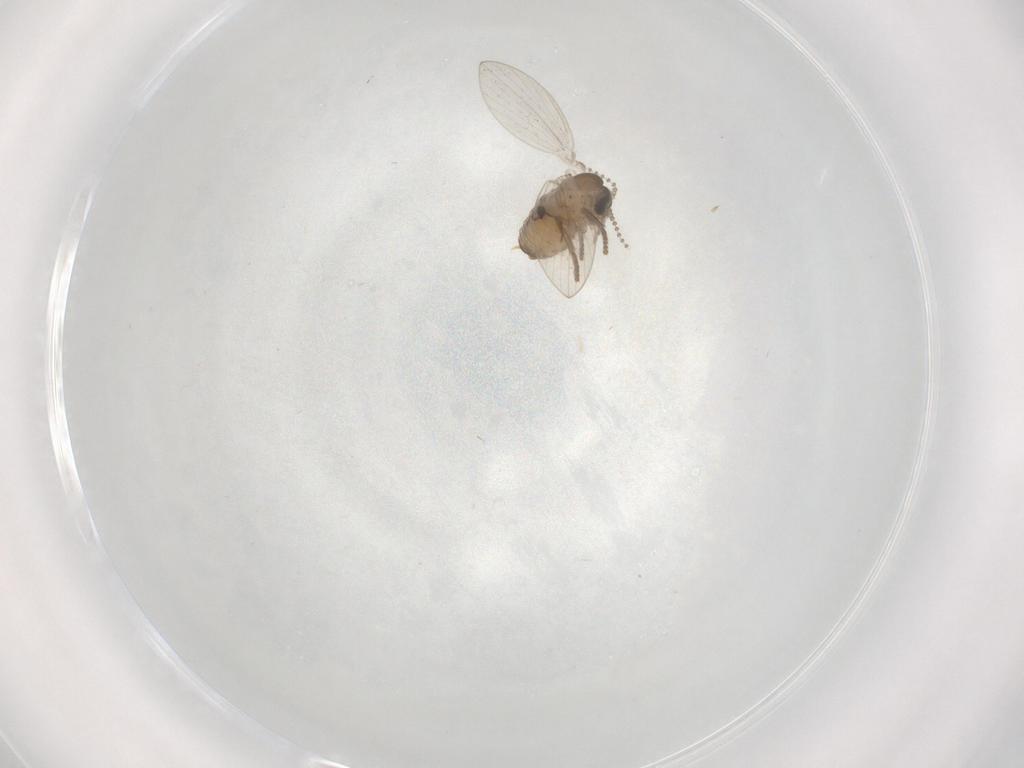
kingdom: Animalia
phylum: Arthropoda
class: Insecta
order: Diptera
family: Psychodidae
